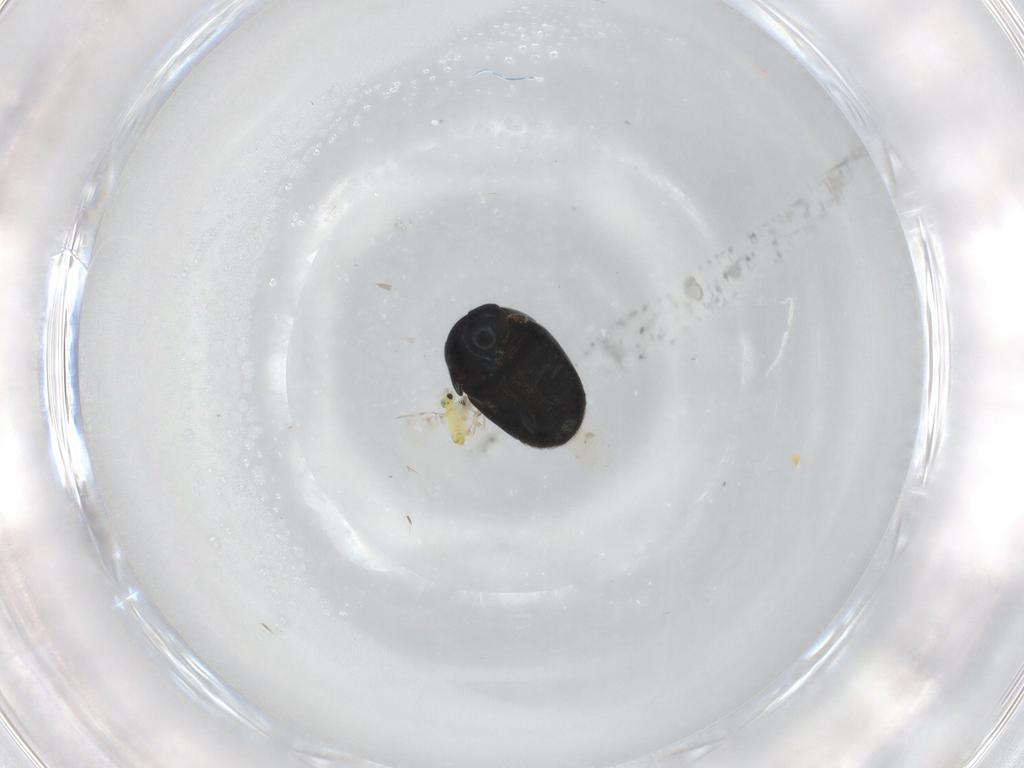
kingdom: Animalia
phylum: Arthropoda
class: Insecta
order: Coleoptera
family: Cybocephalidae
